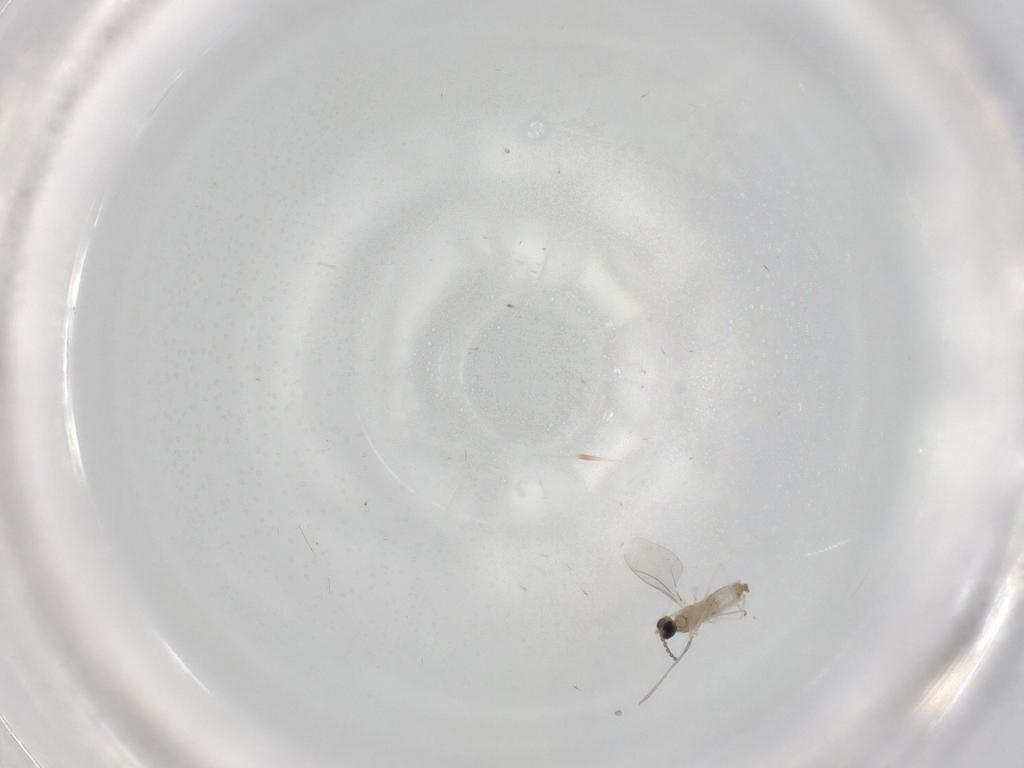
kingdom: Animalia
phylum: Arthropoda
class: Insecta
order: Diptera
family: Cecidomyiidae
